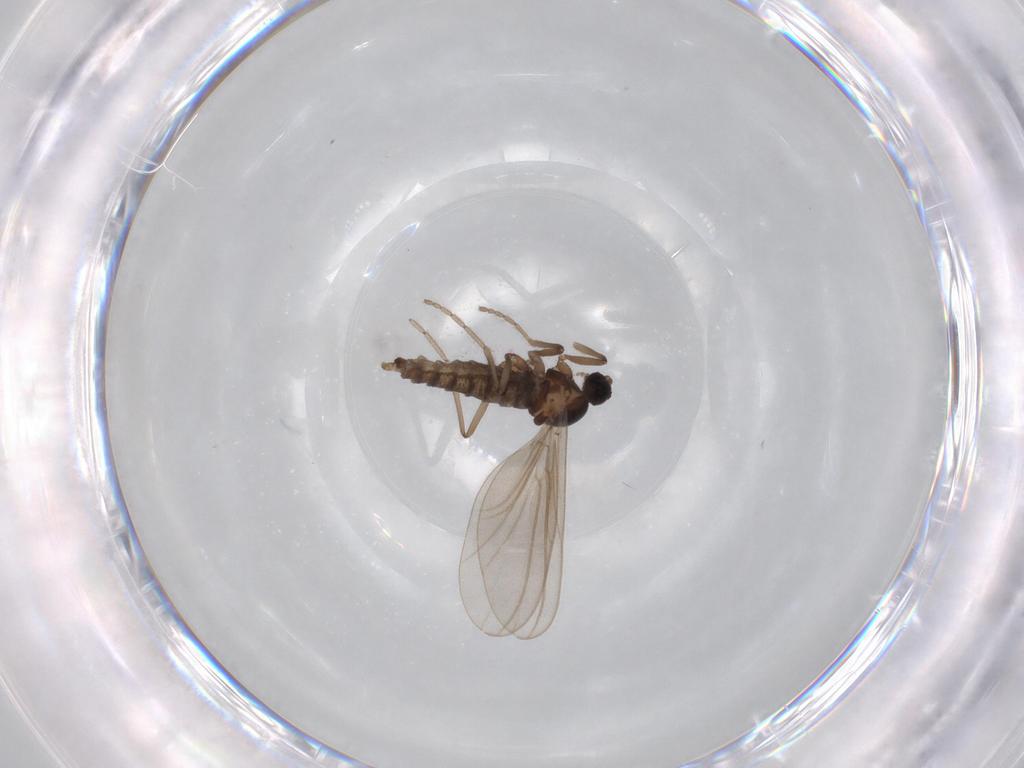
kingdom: Animalia
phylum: Arthropoda
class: Insecta
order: Diptera
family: Cecidomyiidae
